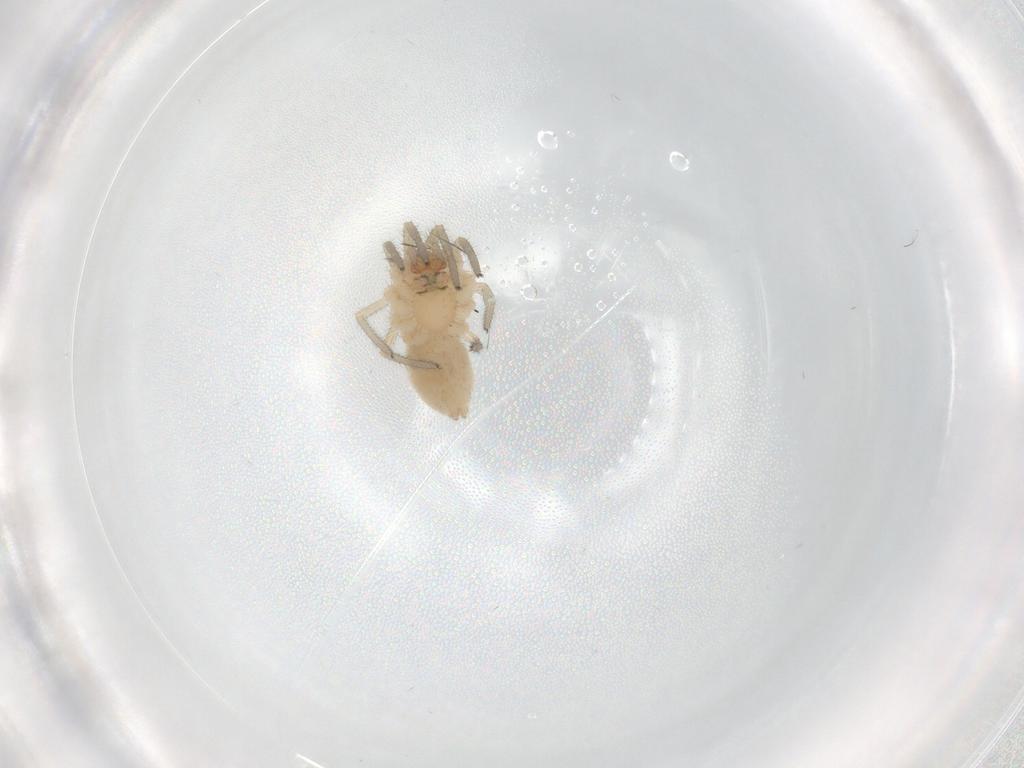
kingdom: Animalia
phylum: Arthropoda
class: Arachnida
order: Araneae
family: Linyphiidae
